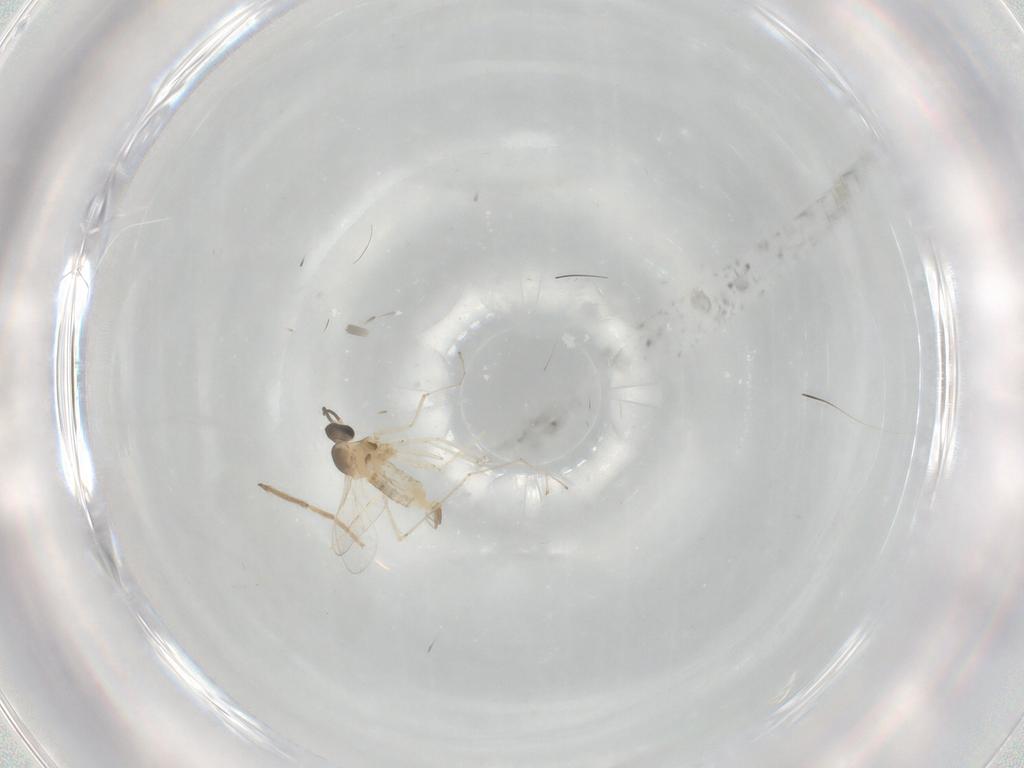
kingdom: Animalia
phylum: Arthropoda
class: Insecta
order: Diptera
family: Cecidomyiidae
